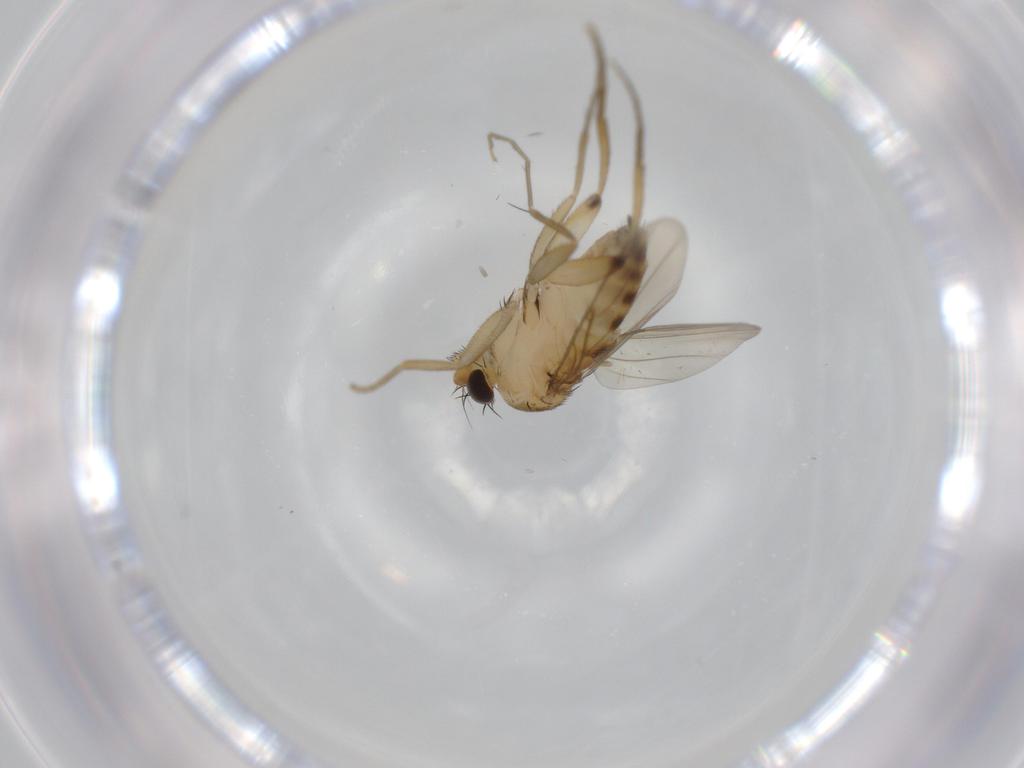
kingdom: Animalia
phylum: Arthropoda
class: Insecta
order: Diptera
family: Phoridae
